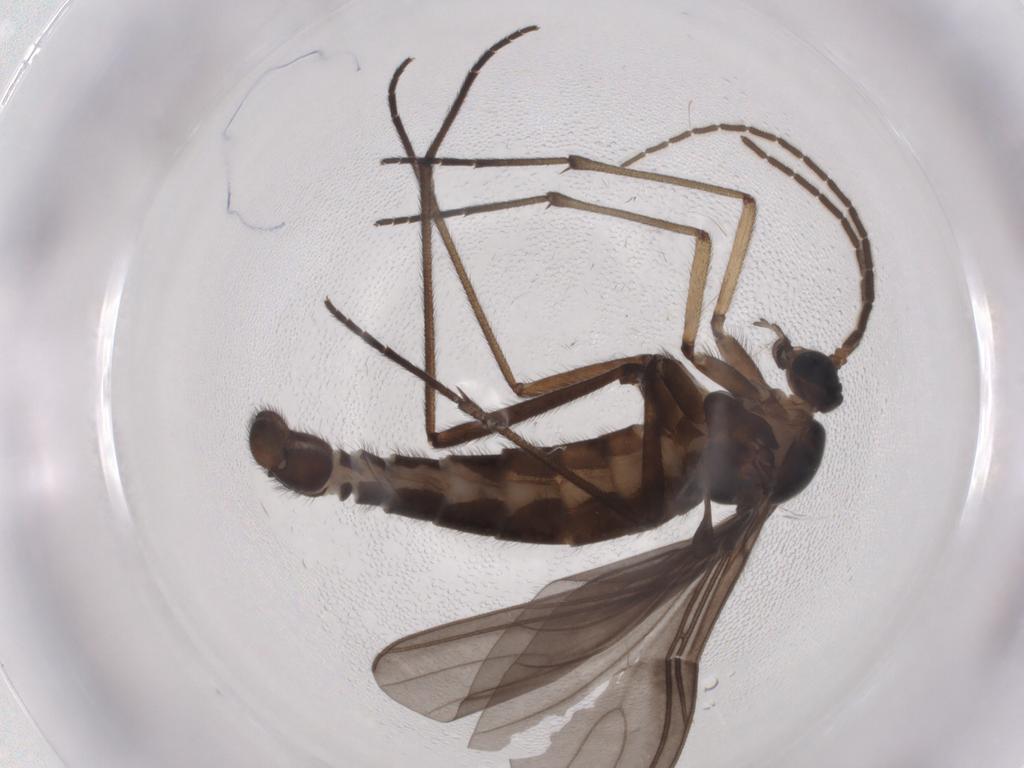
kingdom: Animalia
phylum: Arthropoda
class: Insecta
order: Diptera
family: Sciaridae
